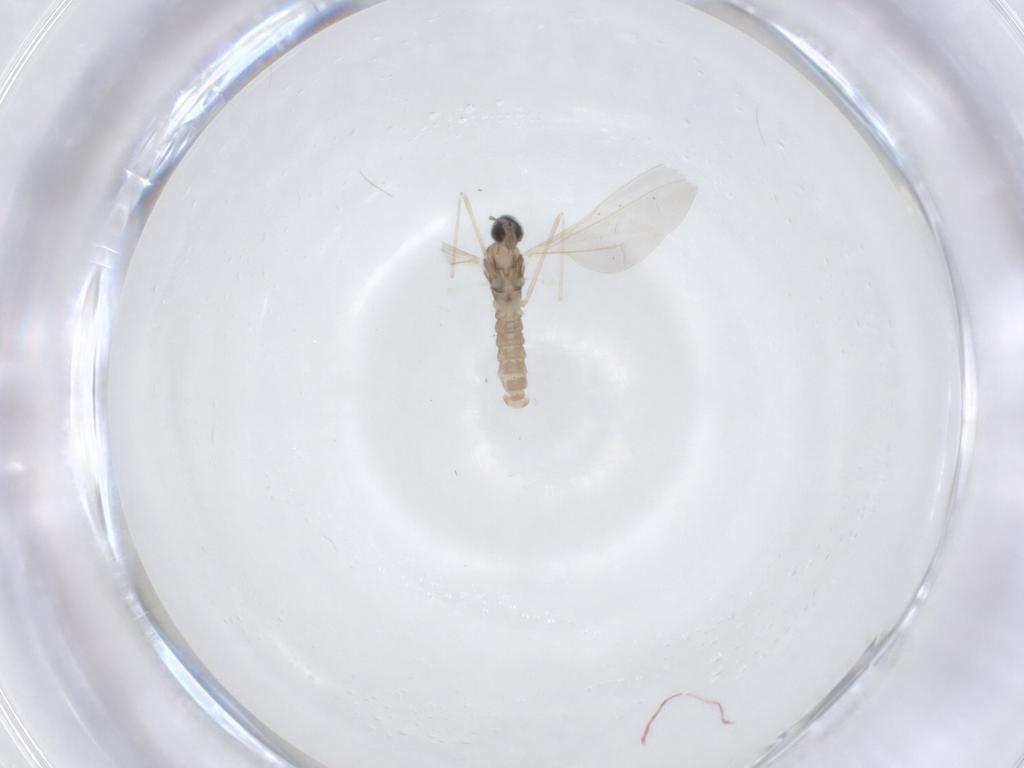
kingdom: Animalia
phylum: Arthropoda
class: Insecta
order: Diptera
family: Cecidomyiidae
